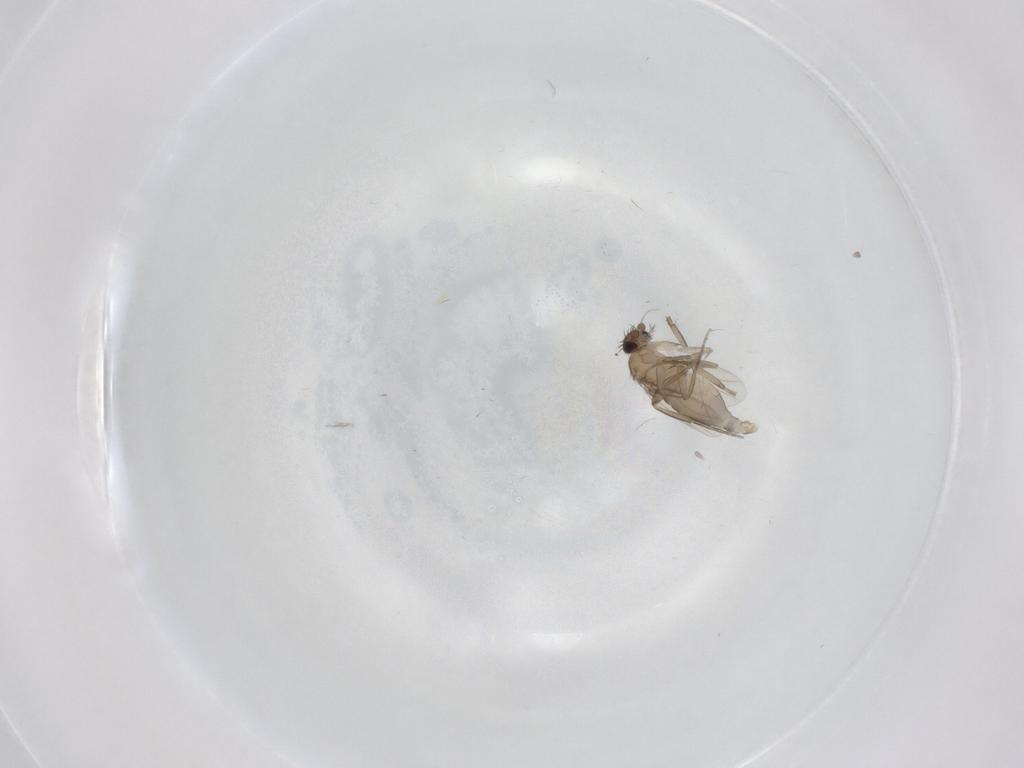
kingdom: Animalia
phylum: Arthropoda
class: Insecta
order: Diptera
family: Phoridae
